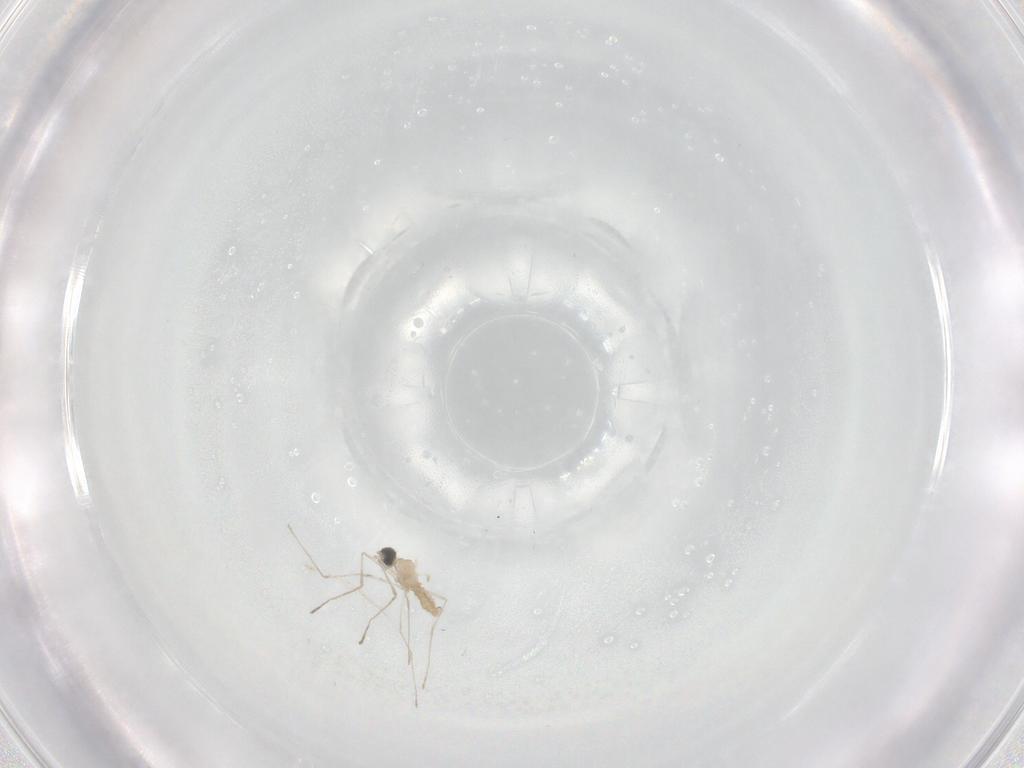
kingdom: Animalia
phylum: Arthropoda
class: Insecta
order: Diptera
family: Cecidomyiidae
